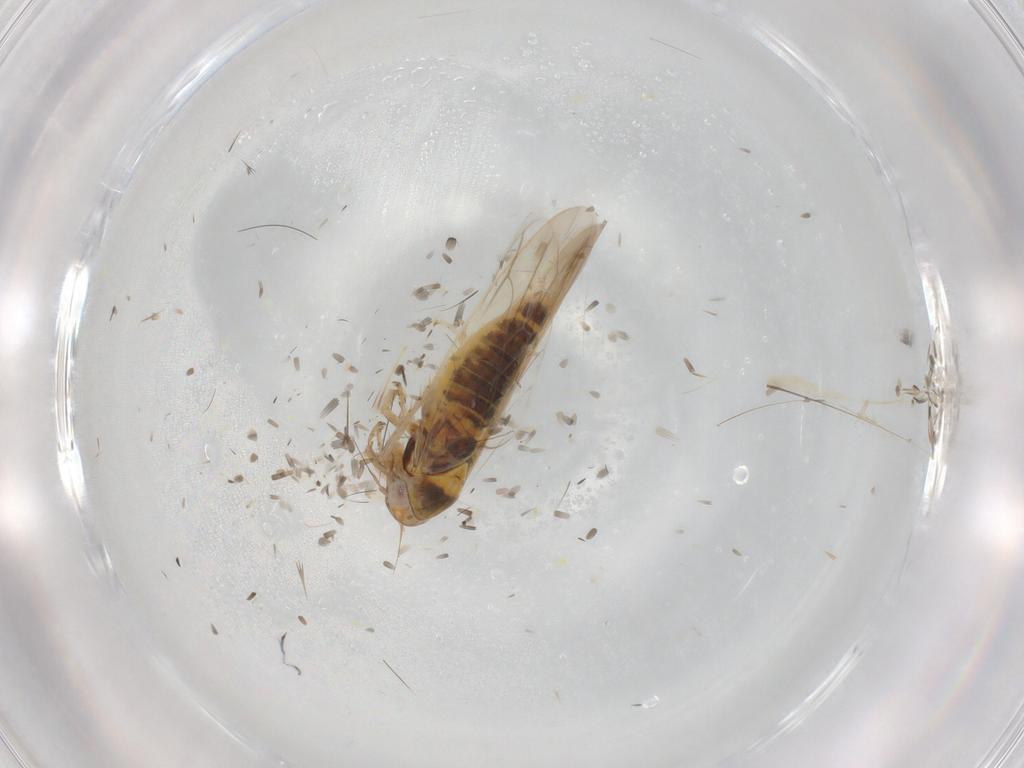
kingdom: Animalia
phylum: Arthropoda
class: Insecta
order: Hemiptera
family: Cicadellidae
